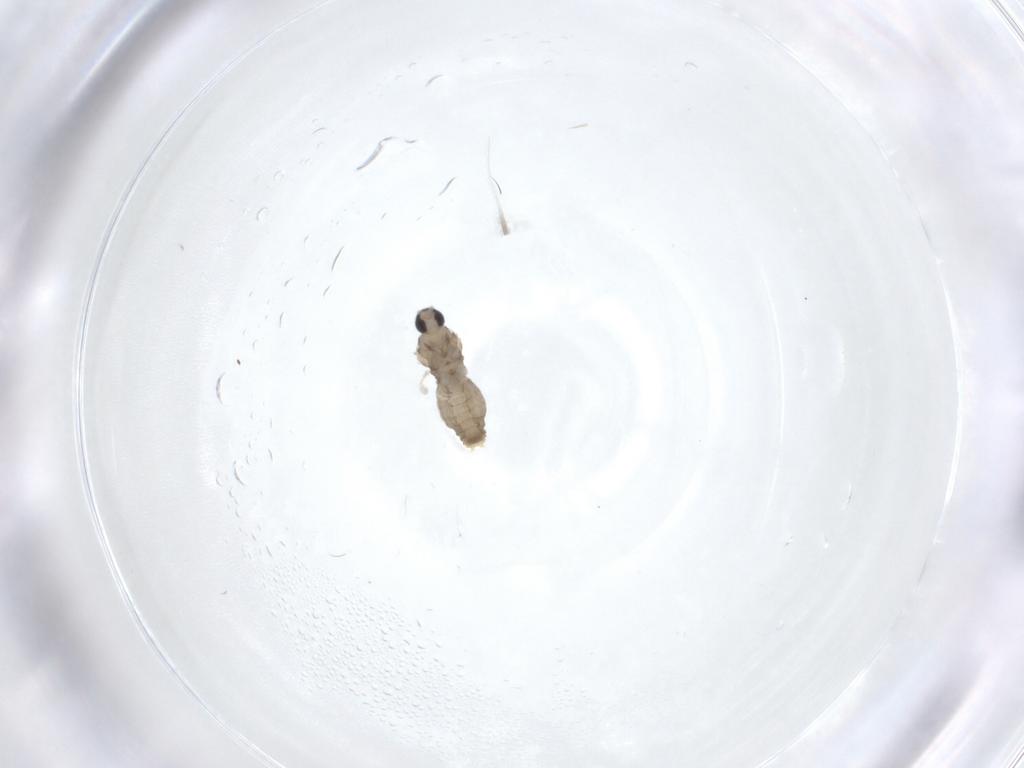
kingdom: Animalia
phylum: Arthropoda
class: Insecta
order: Diptera
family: Cecidomyiidae
